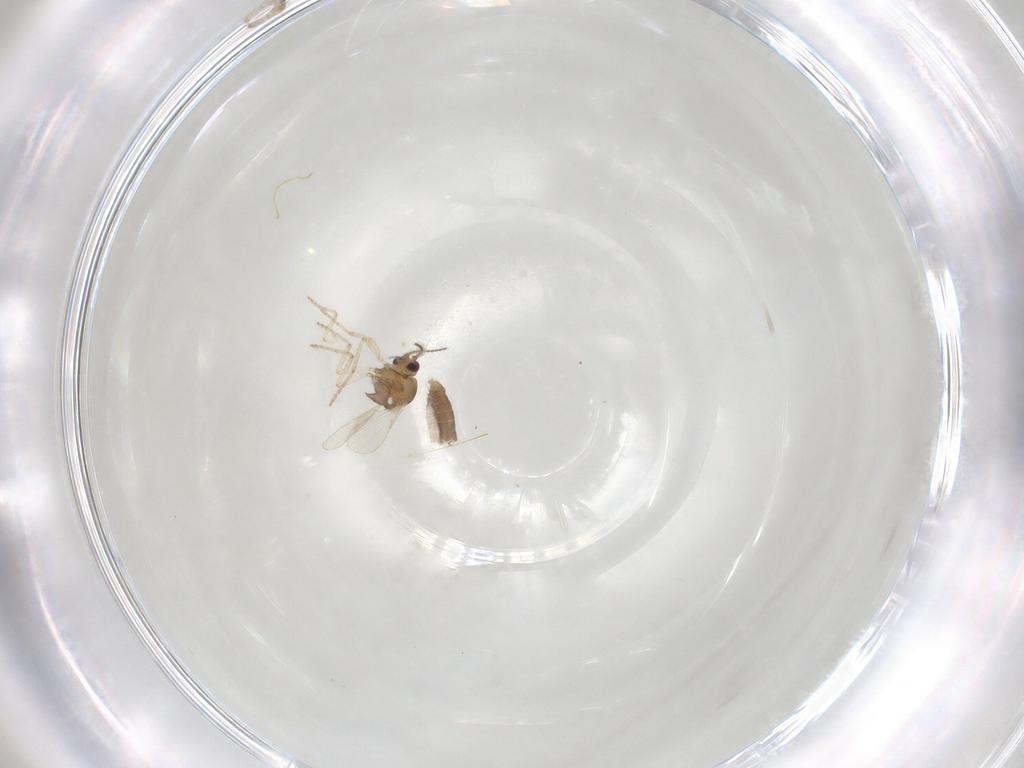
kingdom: Animalia
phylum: Arthropoda
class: Insecta
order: Diptera
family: Ceratopogonidae
